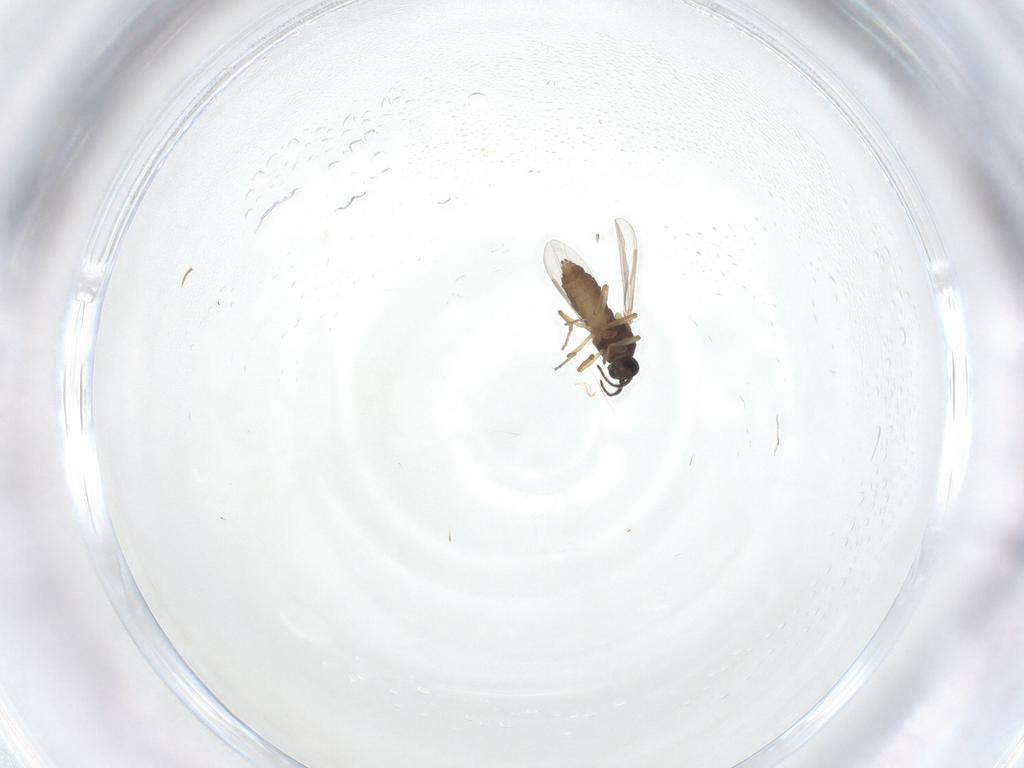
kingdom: Animalia
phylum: Arthropoda
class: Insecta
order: Diptera
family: Ceratopogonidae
